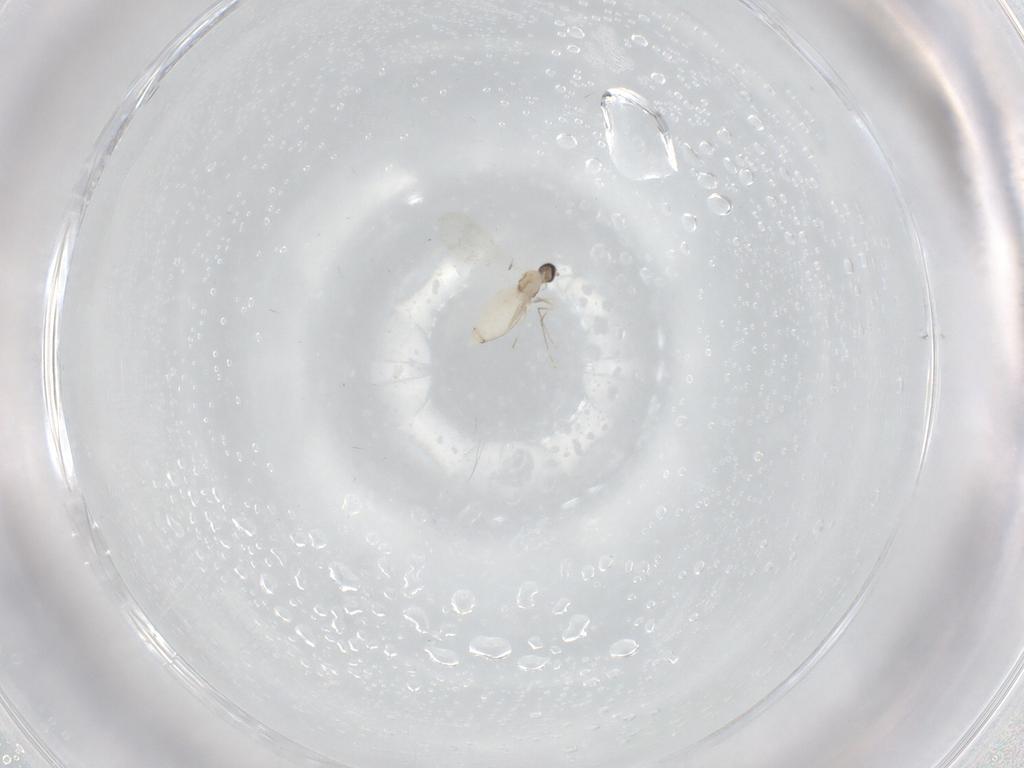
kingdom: Animalia
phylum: Arthropoda
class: Insecta
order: Diptera
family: Cecidomyiidae
